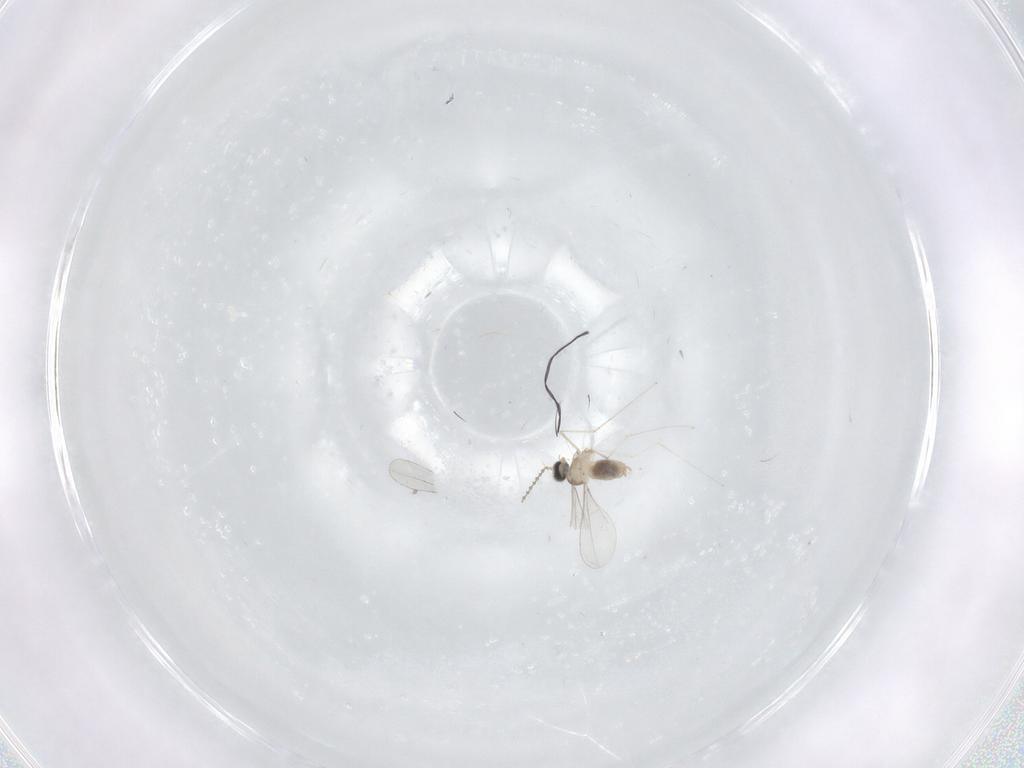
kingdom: Animalia
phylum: Arthropoda
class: Insecta
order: Diptera
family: Cecidomyiidae
